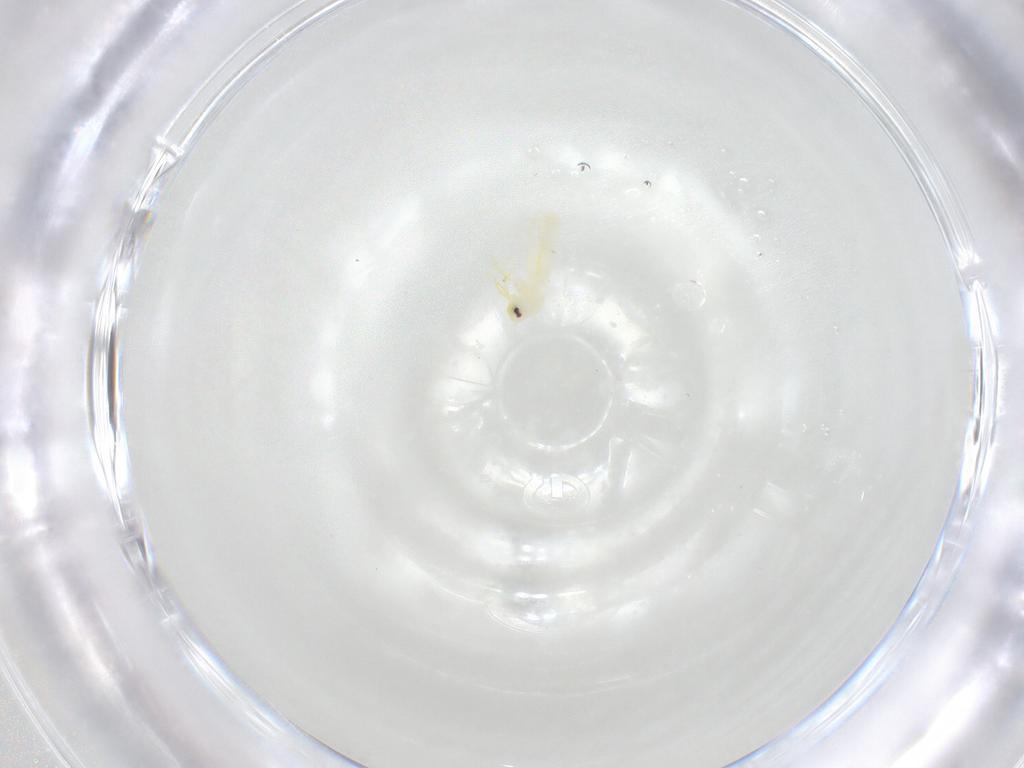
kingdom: Animalia
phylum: Arthropoda
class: Insecta
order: Hemiptera
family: Aleyrodidae
